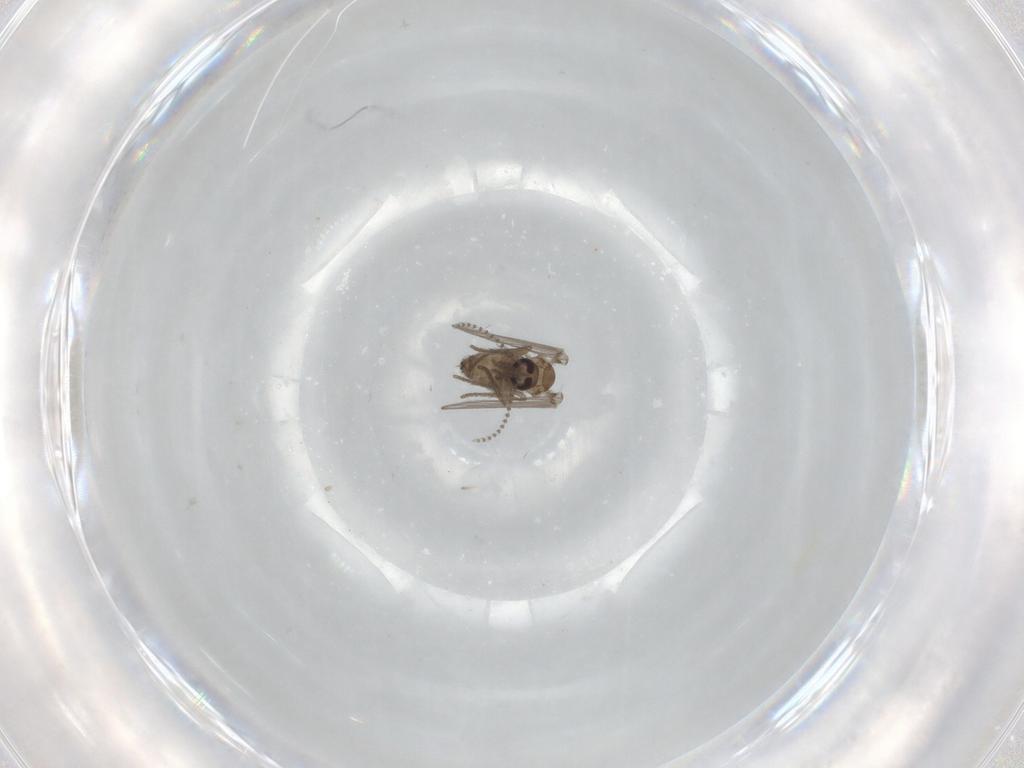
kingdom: Animalia
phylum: Arthropoda
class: Insecta
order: Diptera
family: Psychodidae
